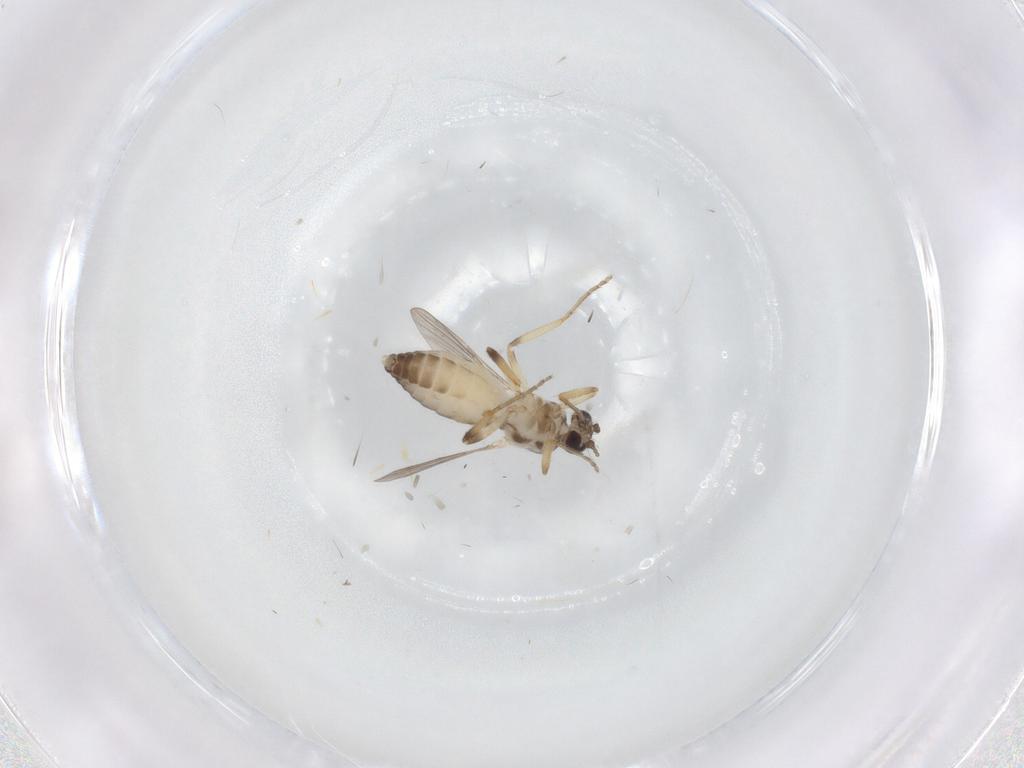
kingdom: Animalia
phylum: Arthropoda
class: Insecta
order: Diptera
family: Ceratopogonidae
